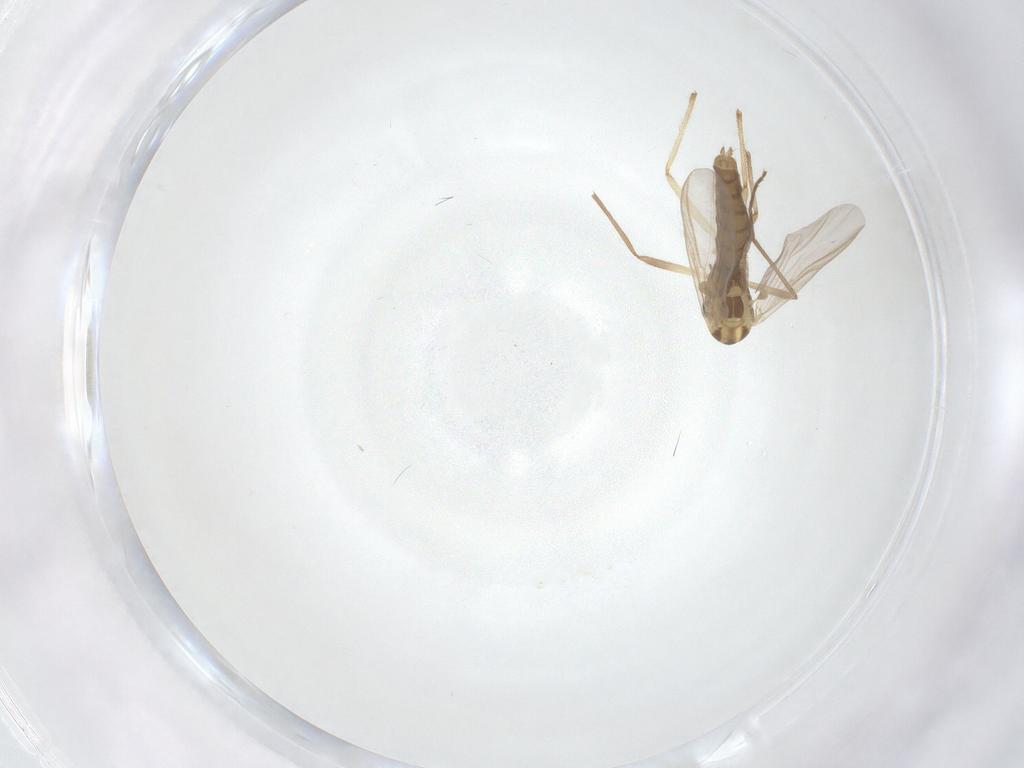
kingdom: Animalia
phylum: Arthropoda
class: Insecta
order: Diptera
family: Chironomidae
